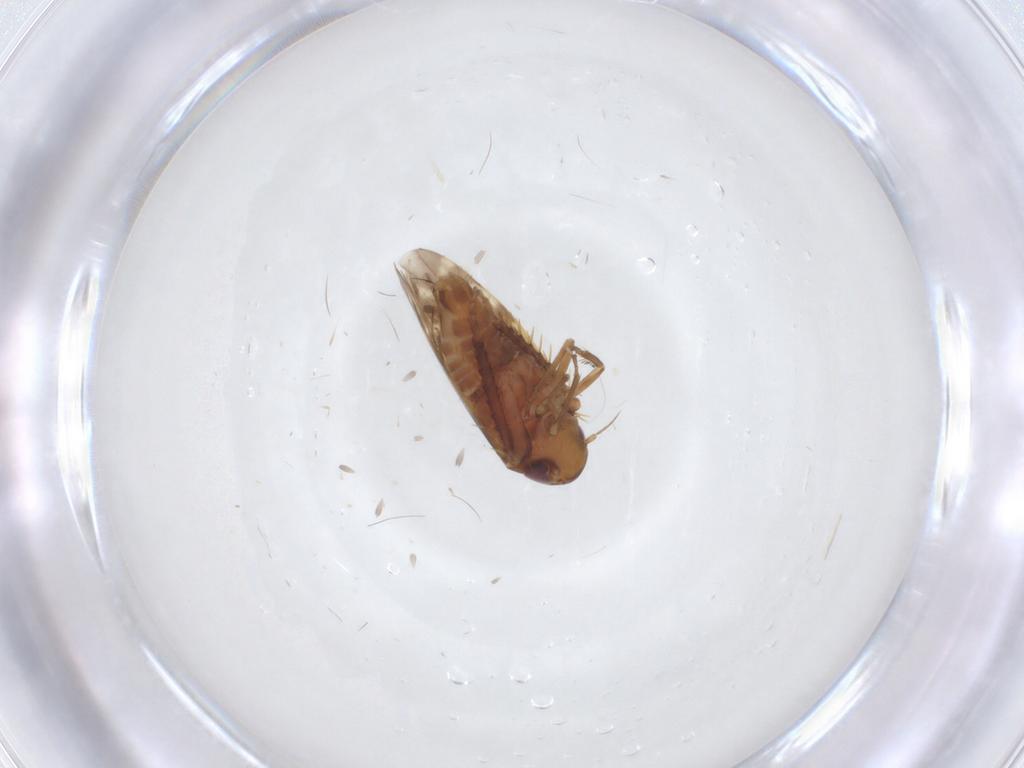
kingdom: Animalia
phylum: Arthropoda
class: Insecta
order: Hemiptera
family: Cicadellidae
